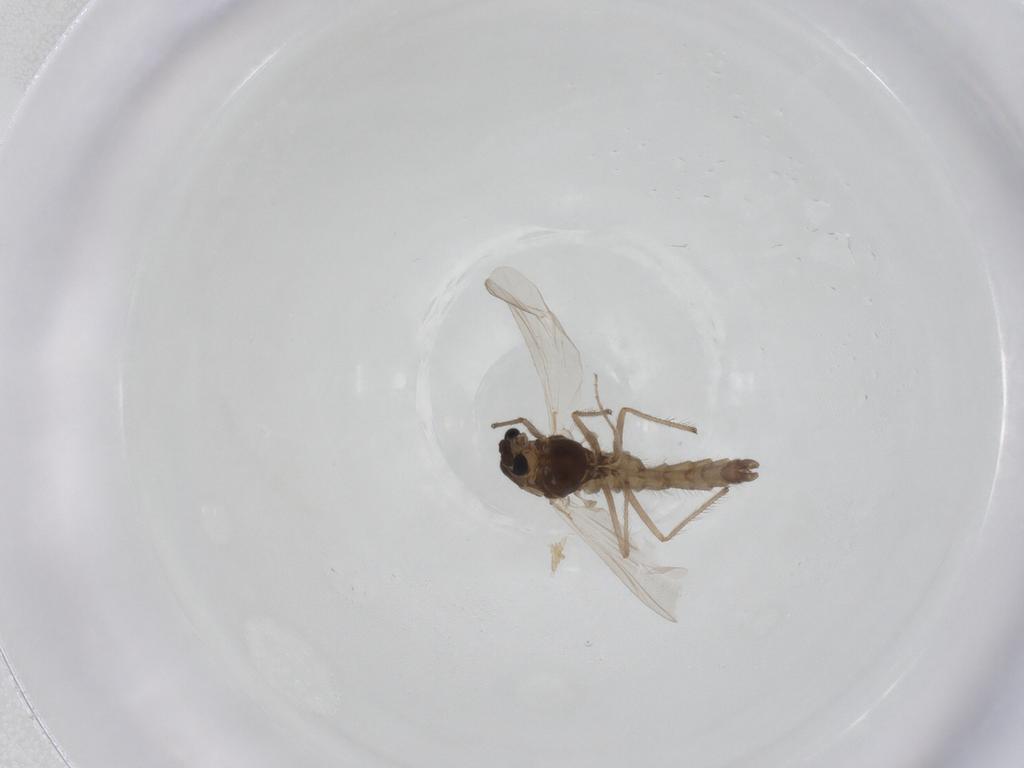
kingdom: Animalia
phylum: Arthropoda
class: Insecta
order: Diptera
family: Chironomidae
